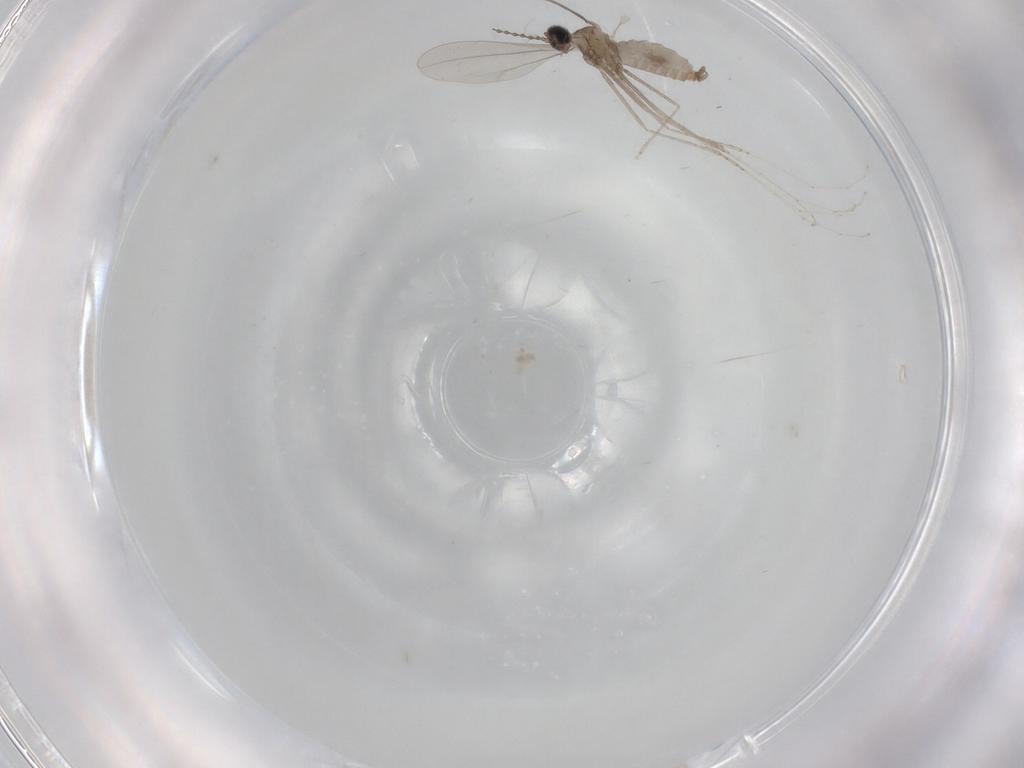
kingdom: Animalia
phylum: Arthropoda
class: Insecta
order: Diptera
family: Cecidomyiidae
